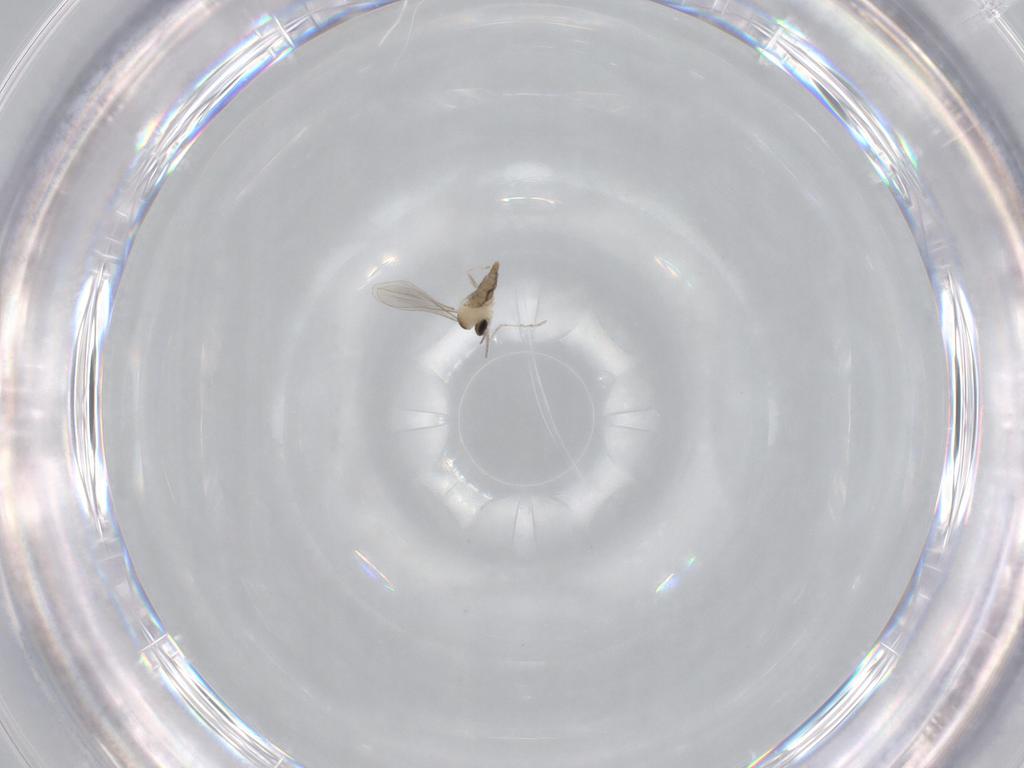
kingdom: Animalia
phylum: Arthropoda
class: Insecta
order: Diptera
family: Cecidomyiidae
